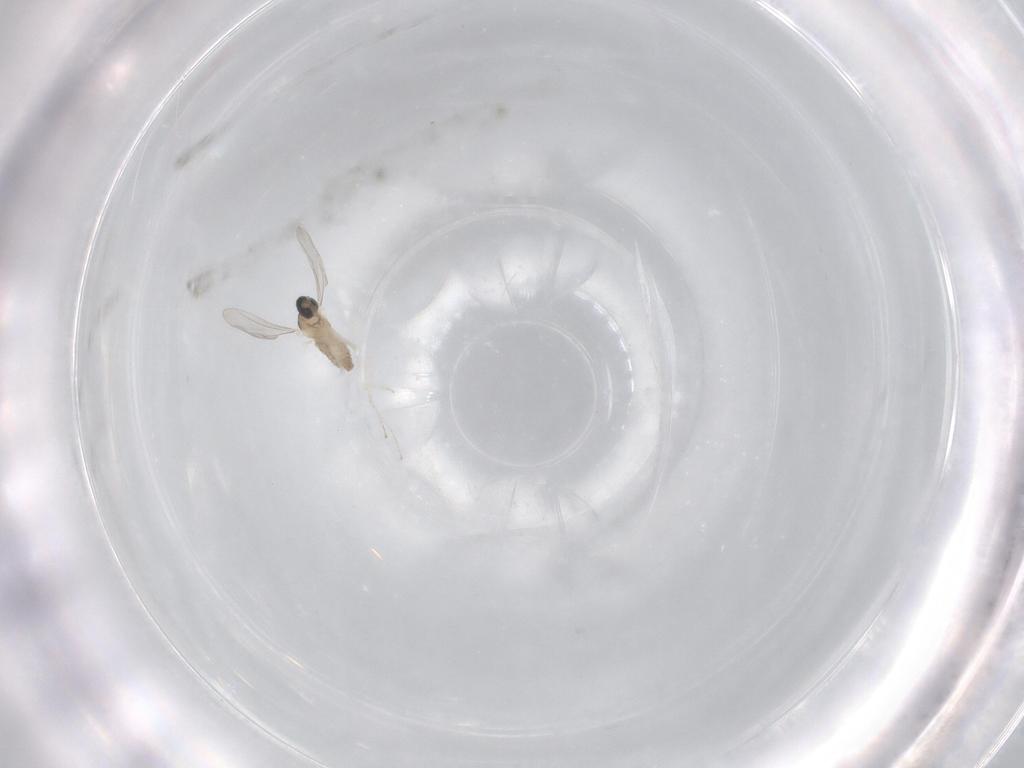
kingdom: Animalia
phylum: Arthropoda
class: Insecta
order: Diptera
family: Cecidomyiidae
